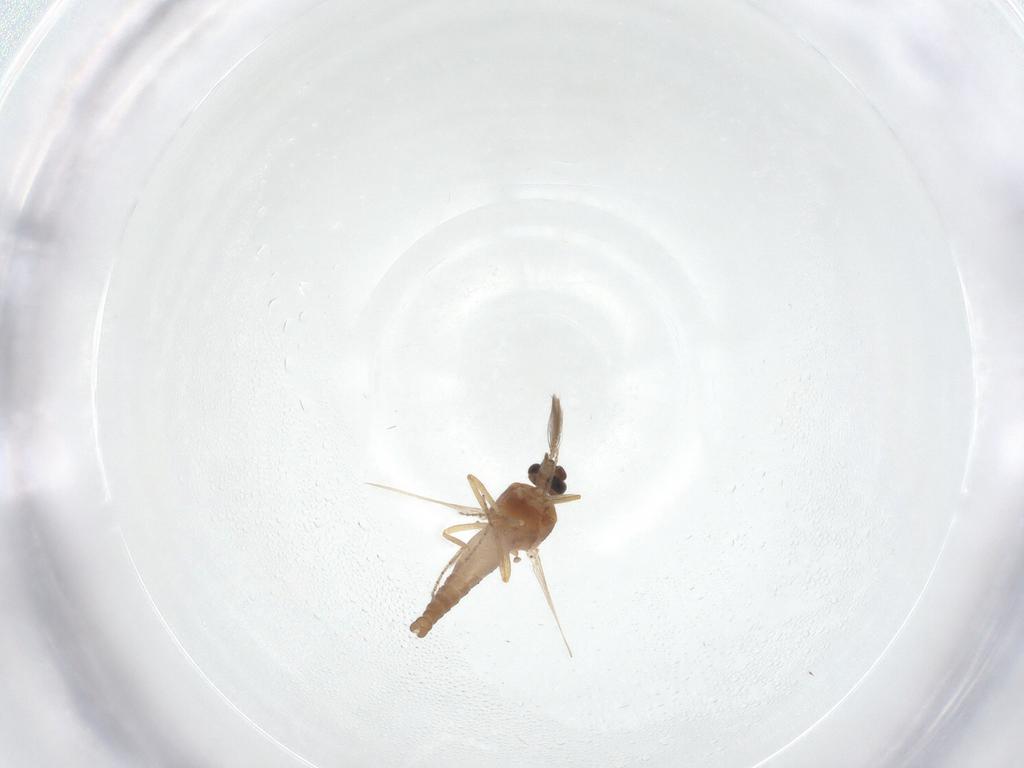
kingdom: Animalia
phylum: Arthropoda
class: Insecta
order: Diptera
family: Ceratopogonidae
